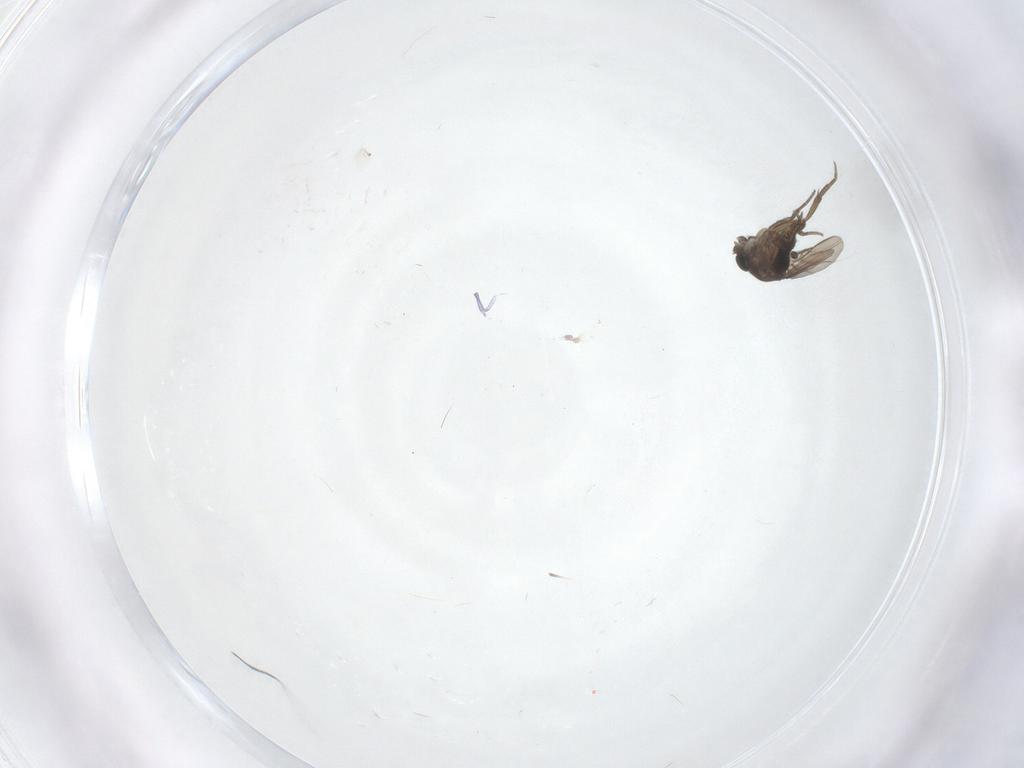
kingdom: Animalia
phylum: Arthropoda
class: Insecta
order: Diptera
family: Phoridae
